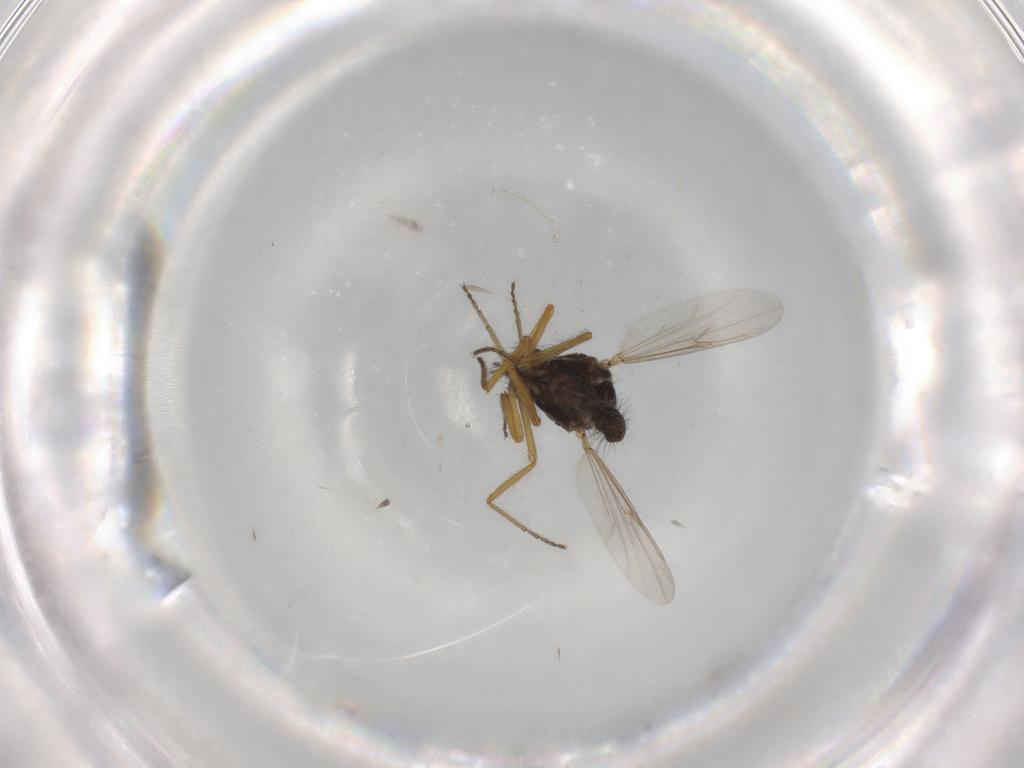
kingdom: Animalia
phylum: Arthropoda
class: Insecta
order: Diptera
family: Ceratopogonidae
